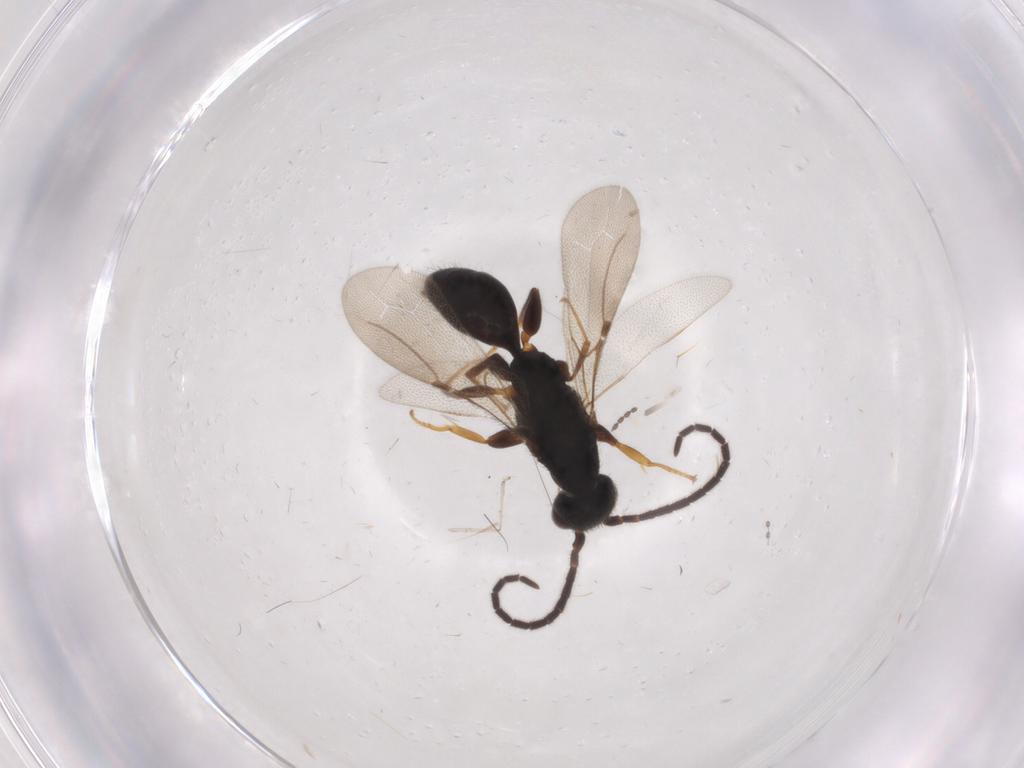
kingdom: Animalia
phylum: Arthropoda
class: Insecta
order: Hymenoptera
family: Bethylidae
